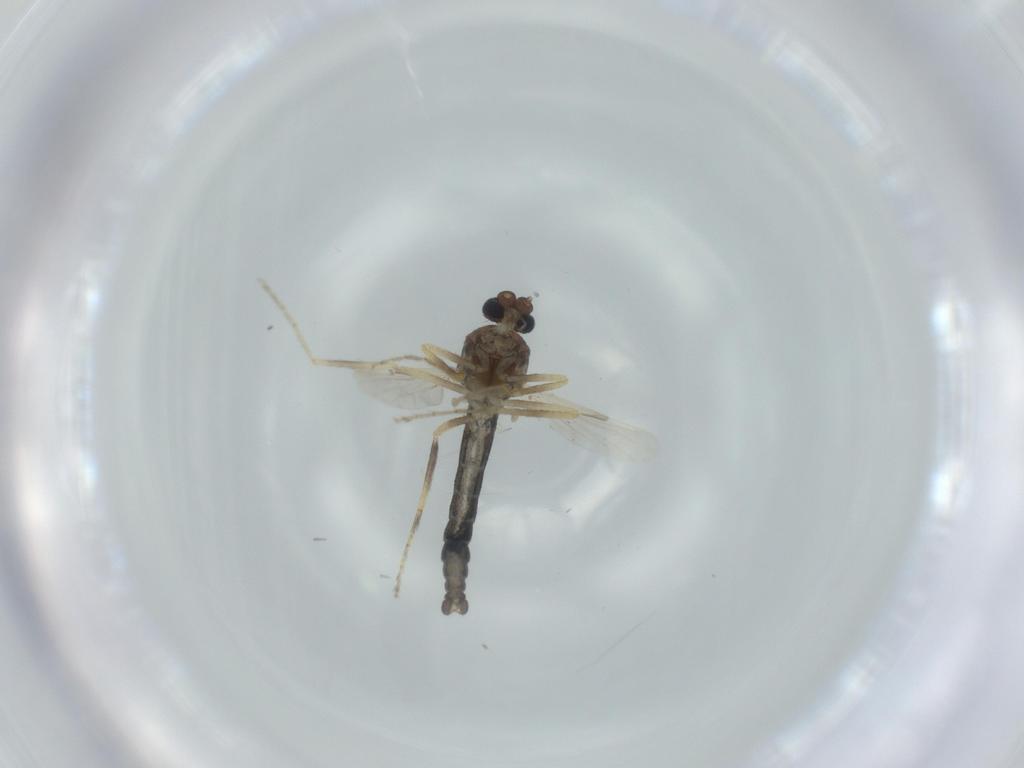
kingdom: Animalia
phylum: Arthropoda
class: Insecta
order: Diptera
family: Ceratopogonidae
